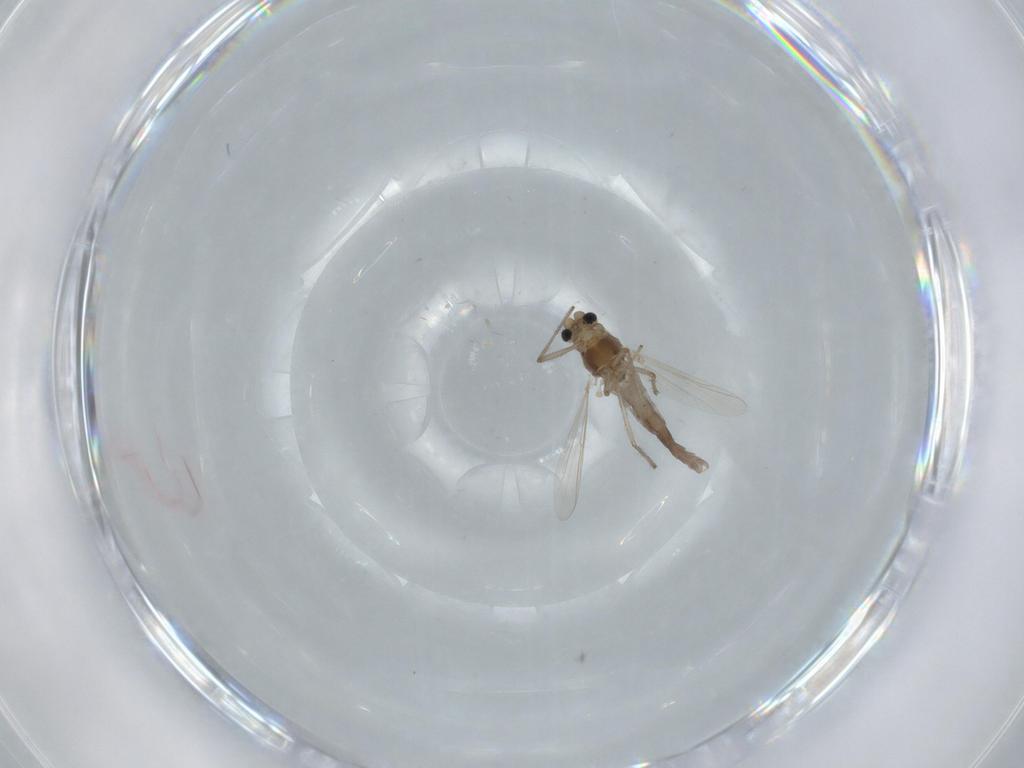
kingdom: Animalia
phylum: Arthropoda
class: Insecta
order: Diptera
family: Chironomidae
